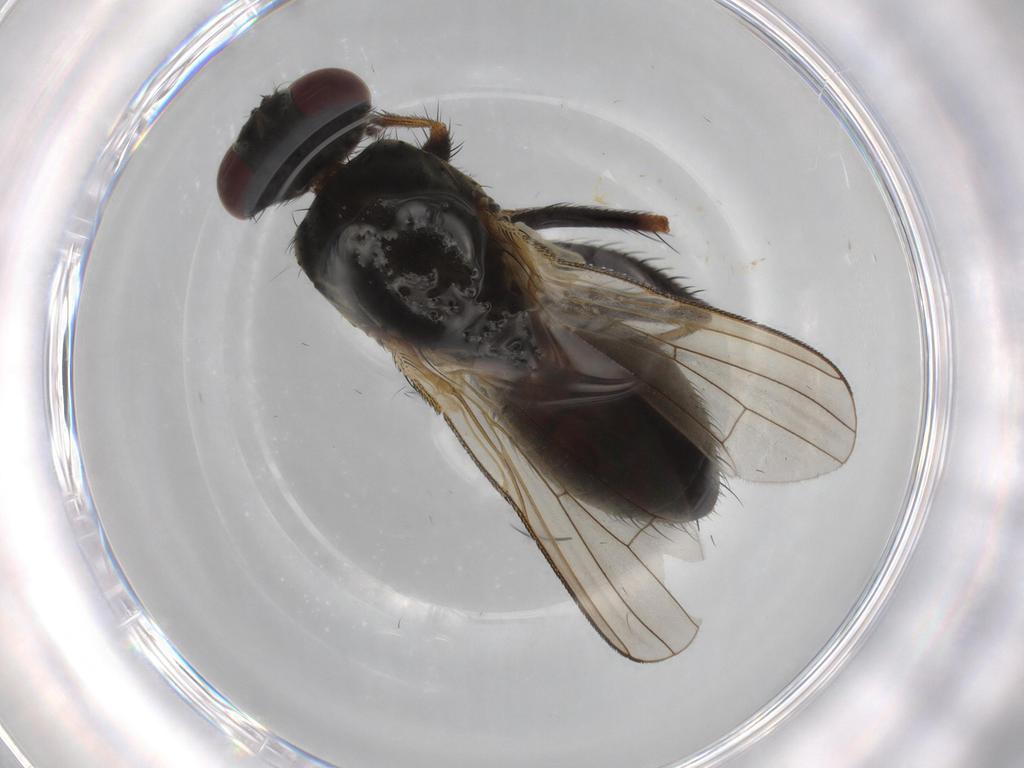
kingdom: Animalia
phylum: Arthropoda
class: Insecta
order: Diptera
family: Muscidae
